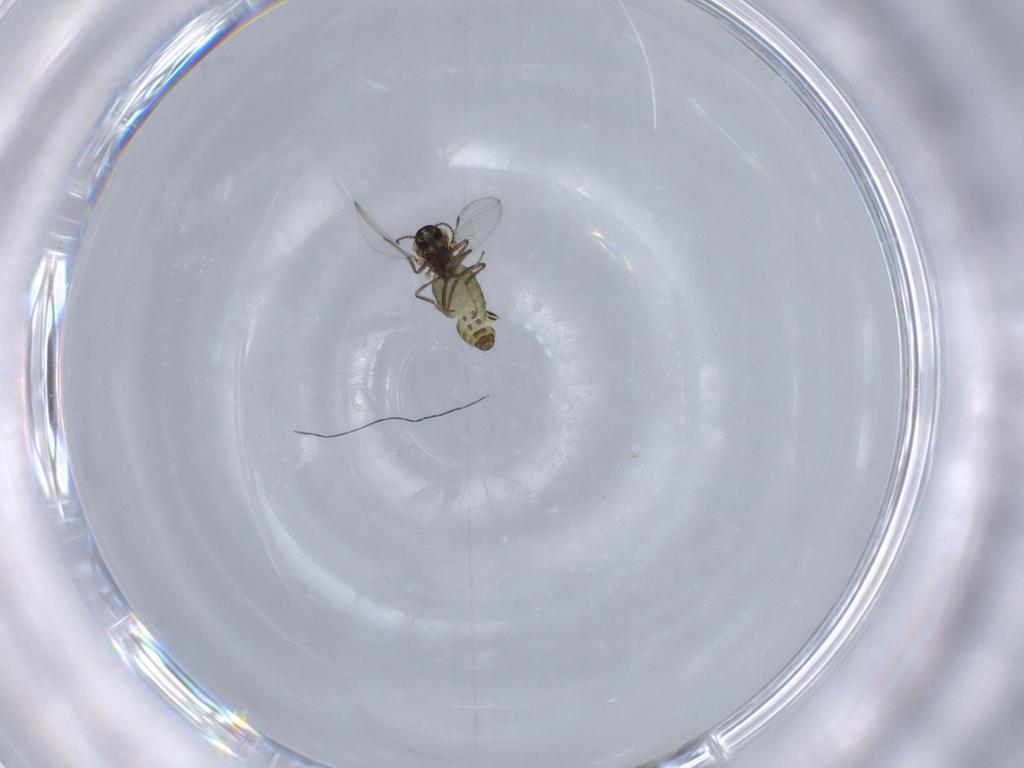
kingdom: Animalia
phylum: Arthropoda
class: Insecta
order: Diptera
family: Ceratopogonidae
